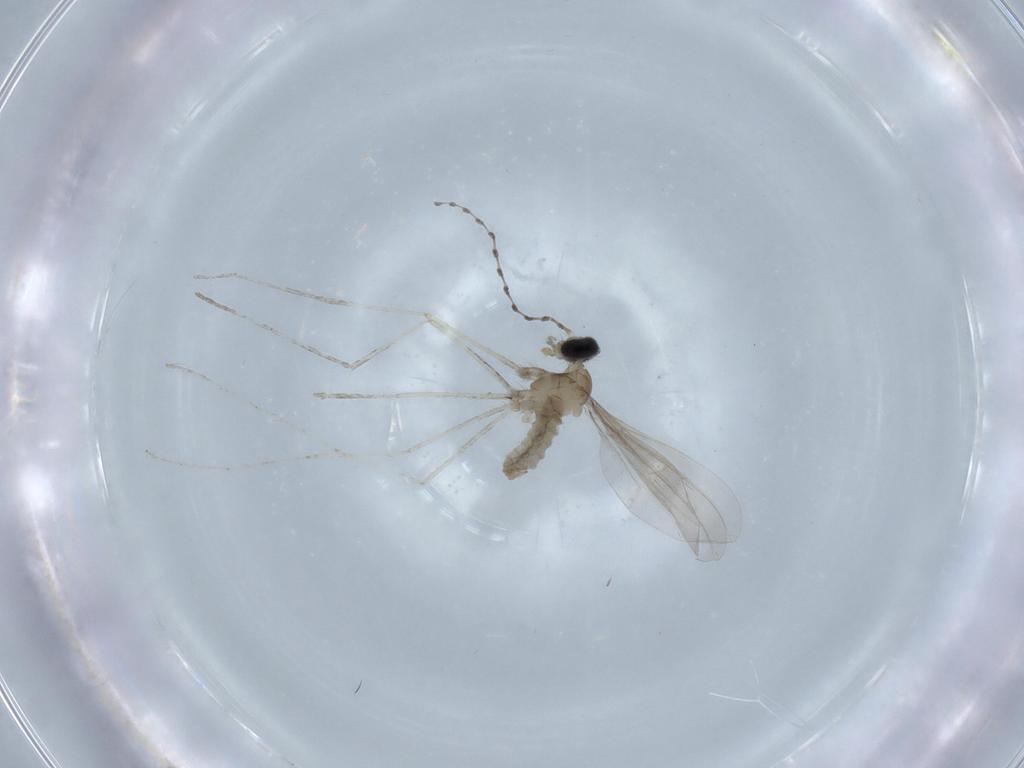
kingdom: Animalia
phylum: Arthropoda
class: Insecta
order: Diptera
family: Cecidomyiidae
